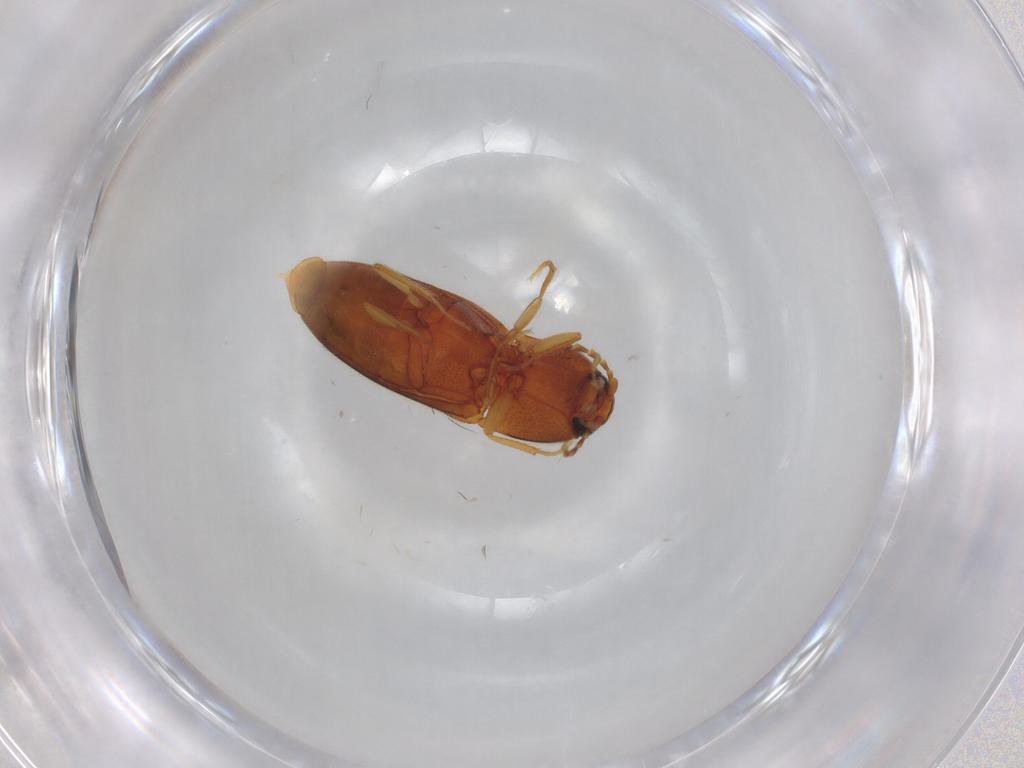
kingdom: Animalia
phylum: Arthropoda
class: Insecta
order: Coleoptera
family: Elateridae
